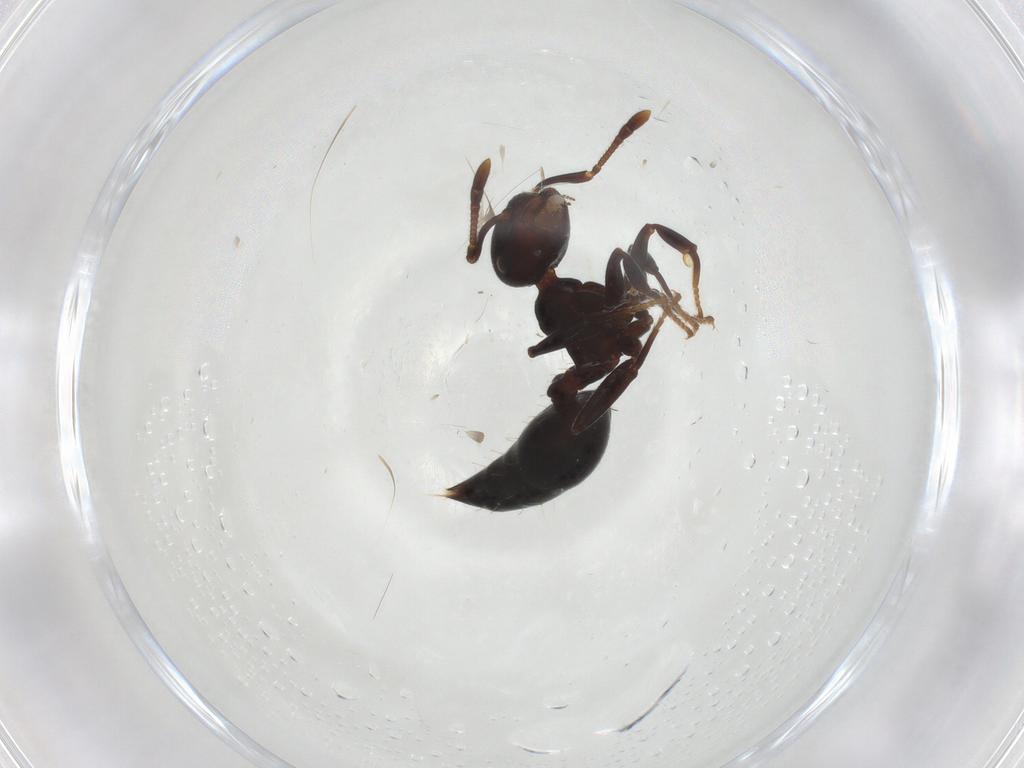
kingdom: Animalia
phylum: Arthropoda
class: Insecta
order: Hymenoptera
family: Formicidae
